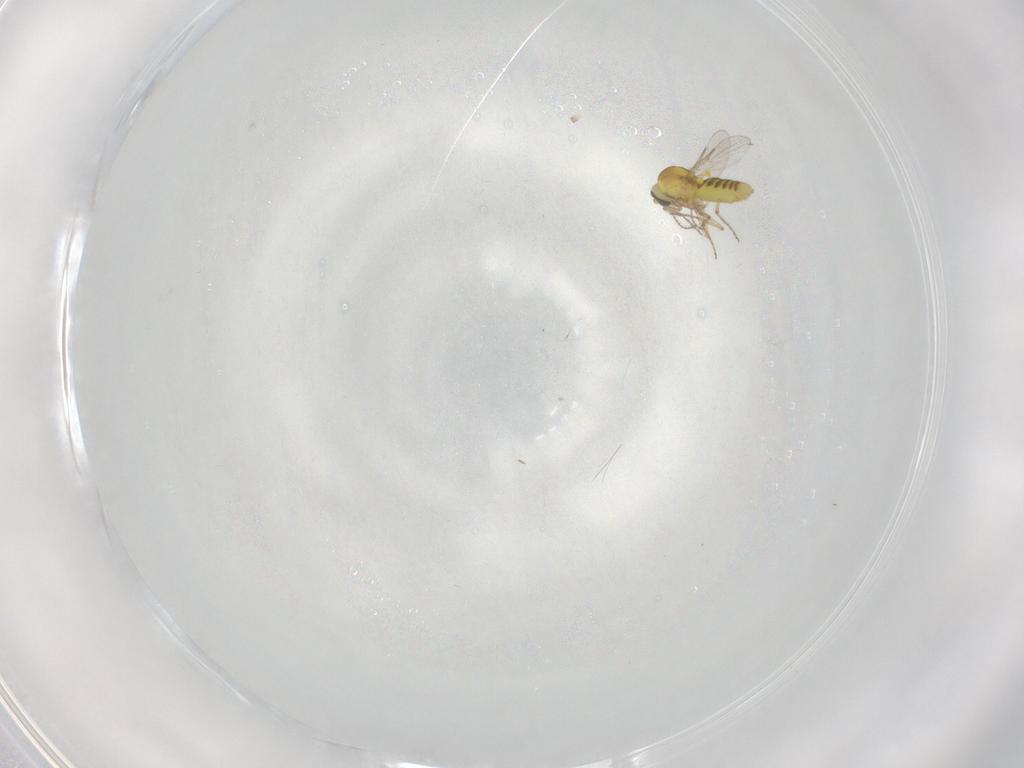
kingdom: Animalia
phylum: Arthropoda
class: Insecta
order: Diptera
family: Ceratopogonidae
